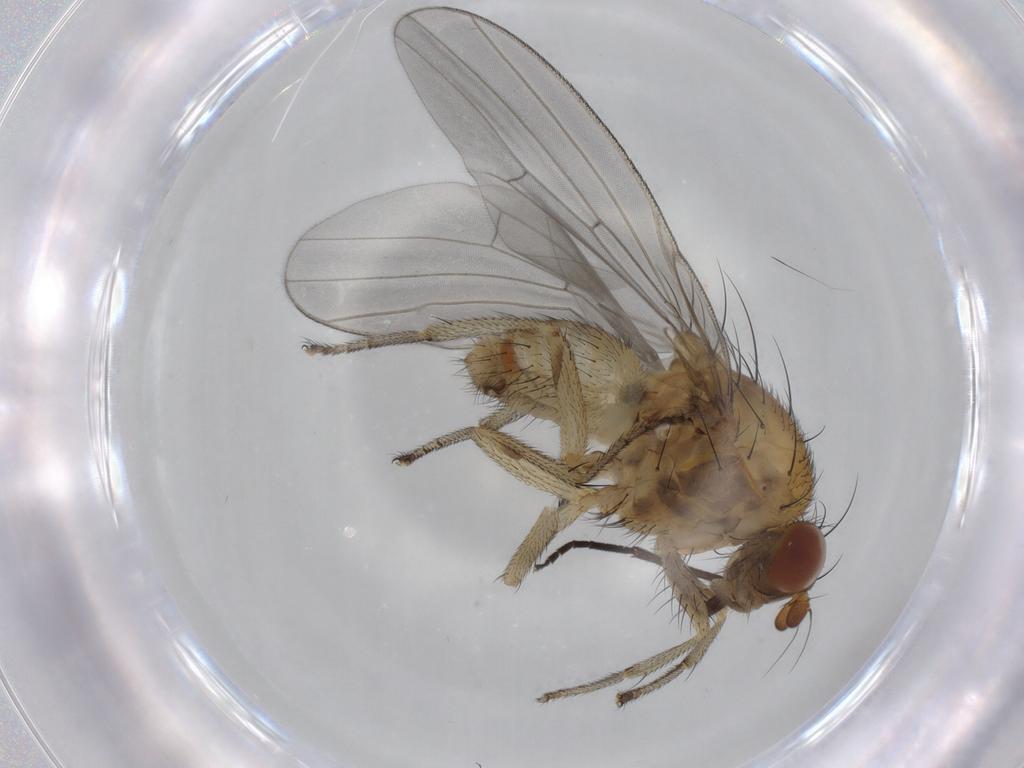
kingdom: Animalia
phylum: Arthropoda
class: Insecta
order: Diptera
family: Lauxaniidae
